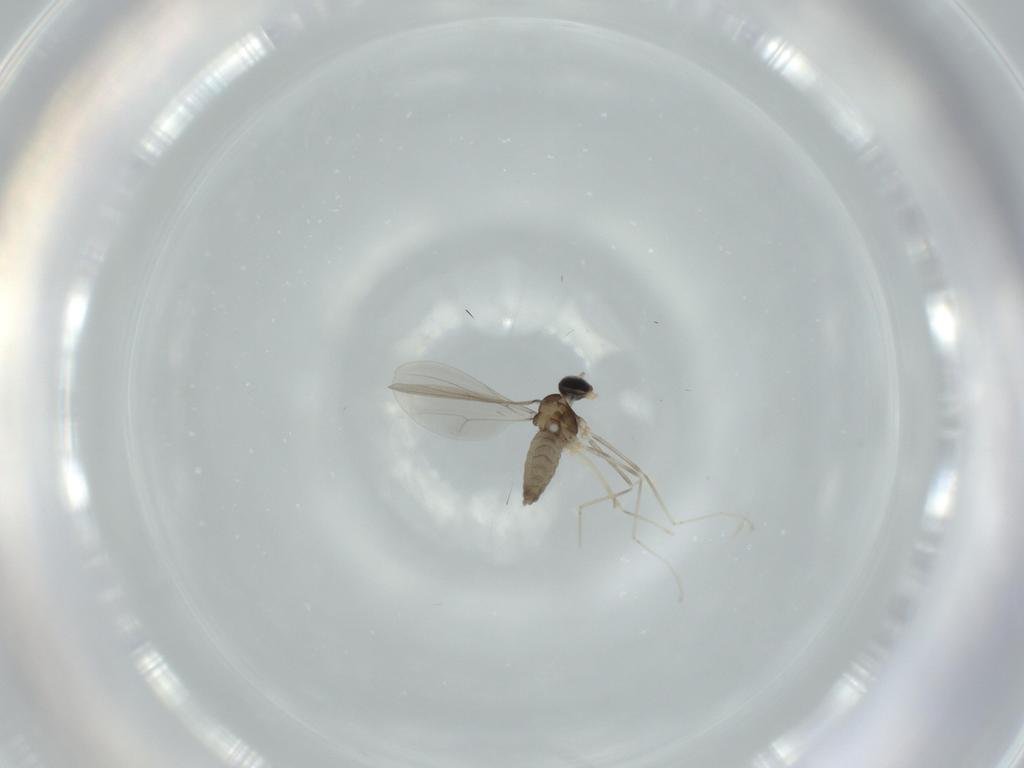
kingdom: Animalia
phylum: Arthropoda
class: Insecta
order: Diptera
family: Cecidomyiidae
